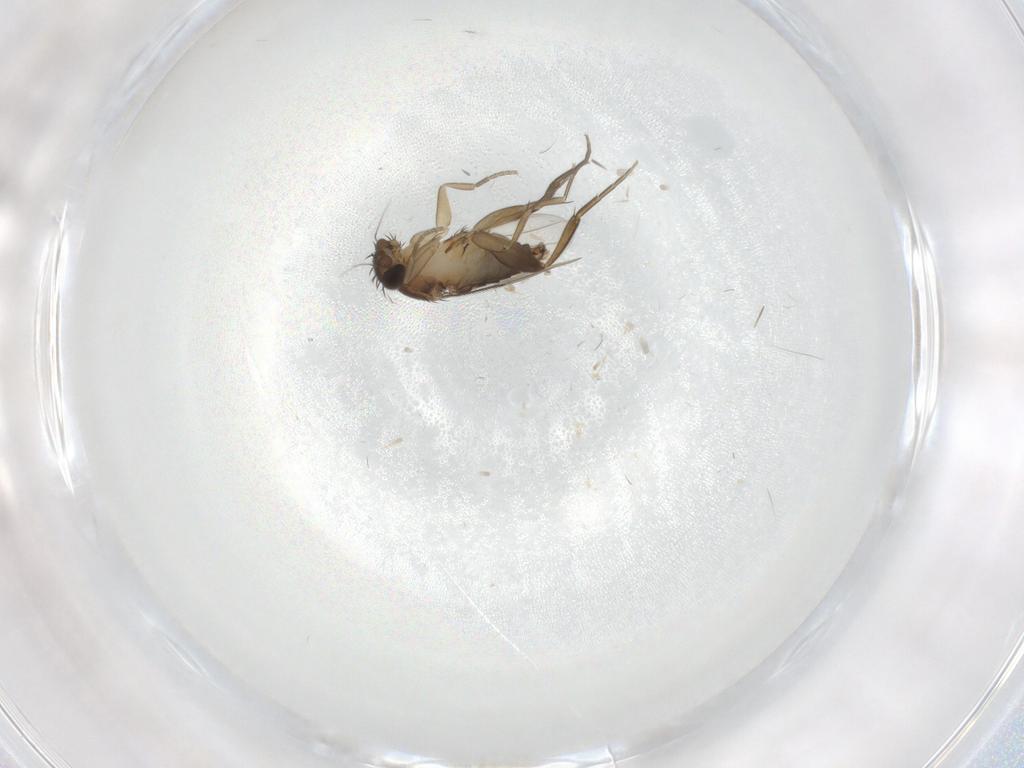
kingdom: Animalia
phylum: Arthropoda
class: Insecta
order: Diptera
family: Phoridae
